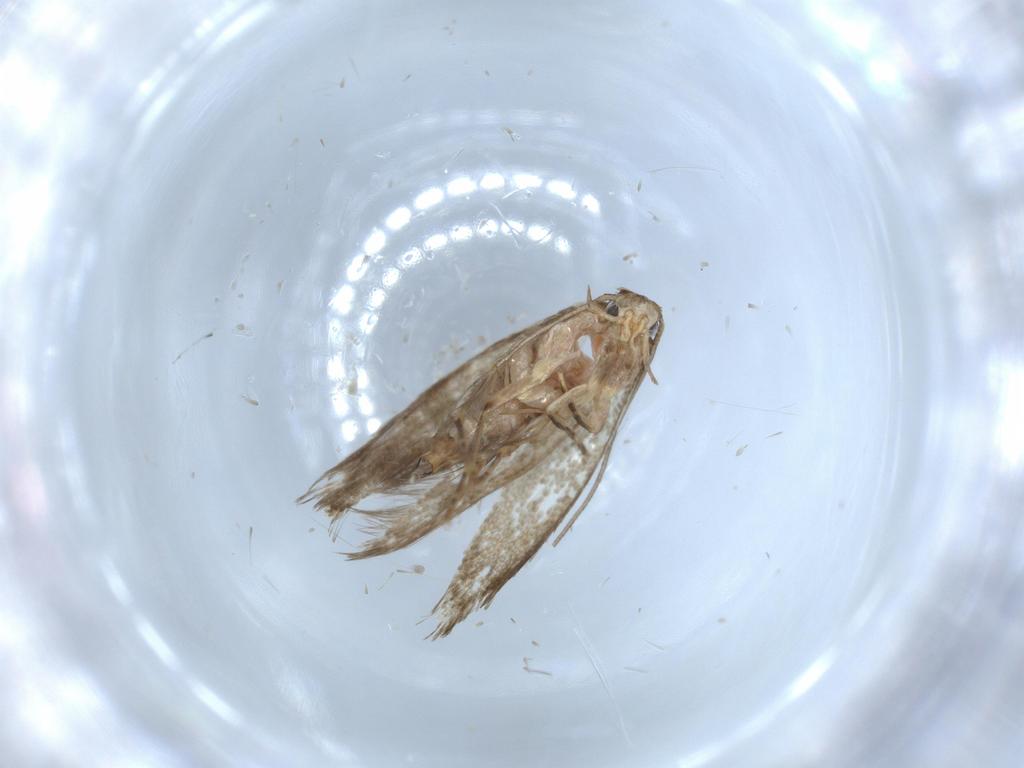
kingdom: Animalia
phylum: Arthropoda
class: Insecta
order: Lepidoptera
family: Tineidae
